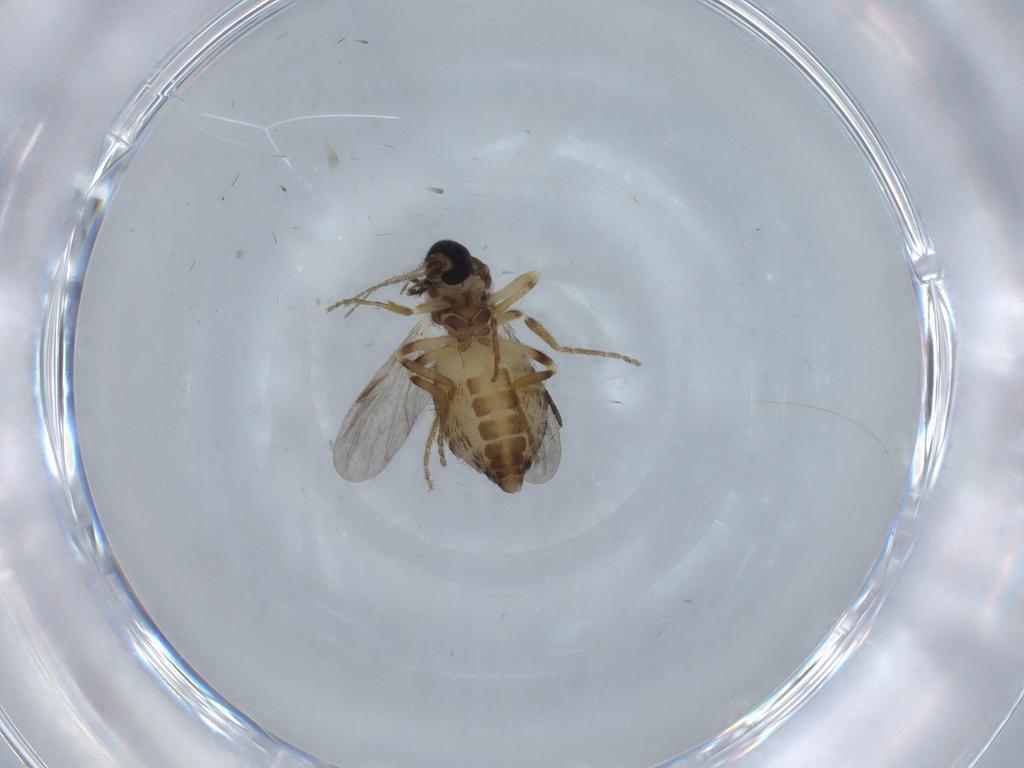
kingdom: Animalia
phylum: Arthropoda
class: Insecta
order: Diptera
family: Ceratopogonidae
